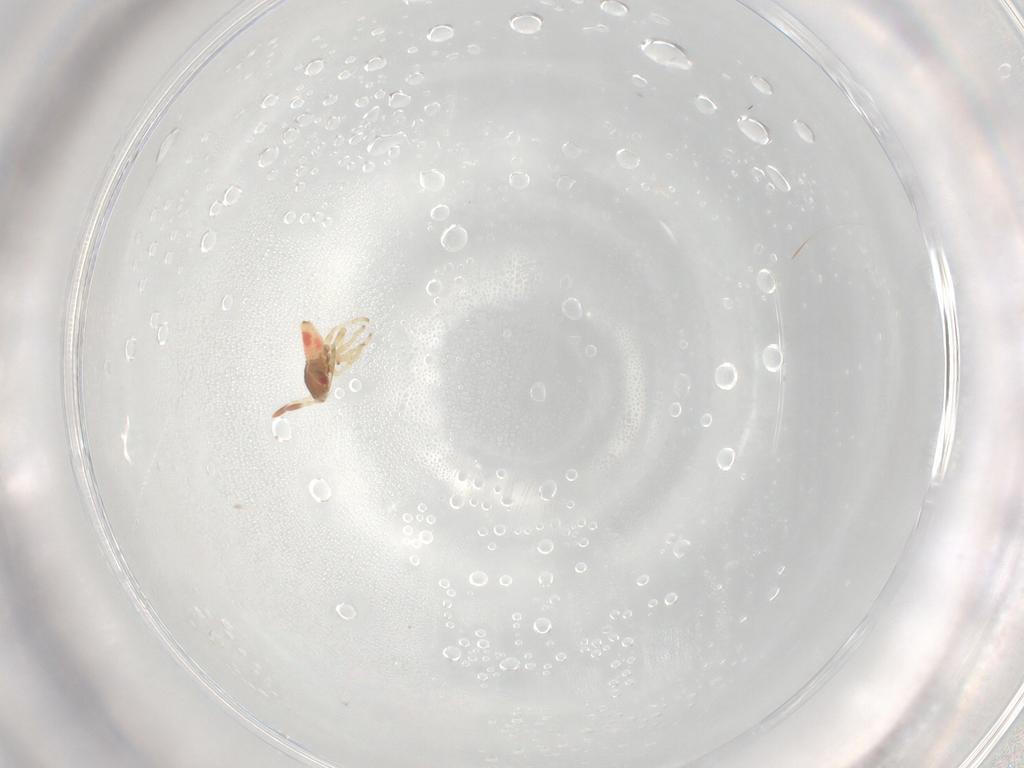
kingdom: Animalia
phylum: Arthropoda
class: Insecta
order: Hemiptera
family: Lygaeidae
